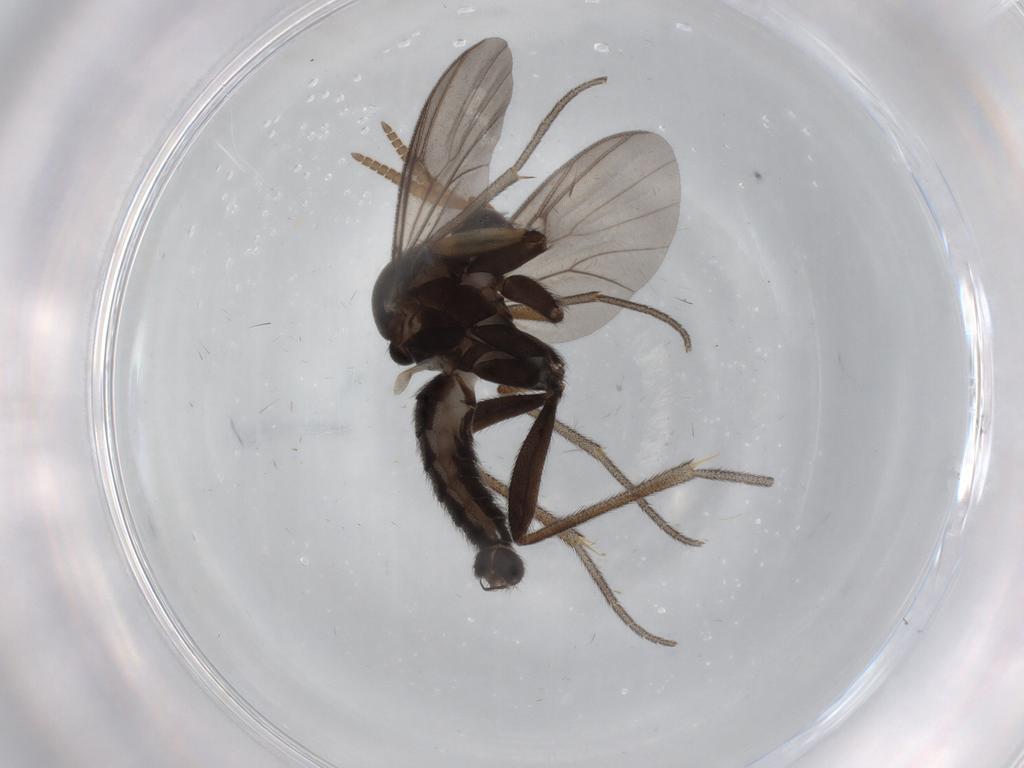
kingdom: Animalia
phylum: Arthropoda
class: Insecta
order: Diptera
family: Cecidomyiidae
